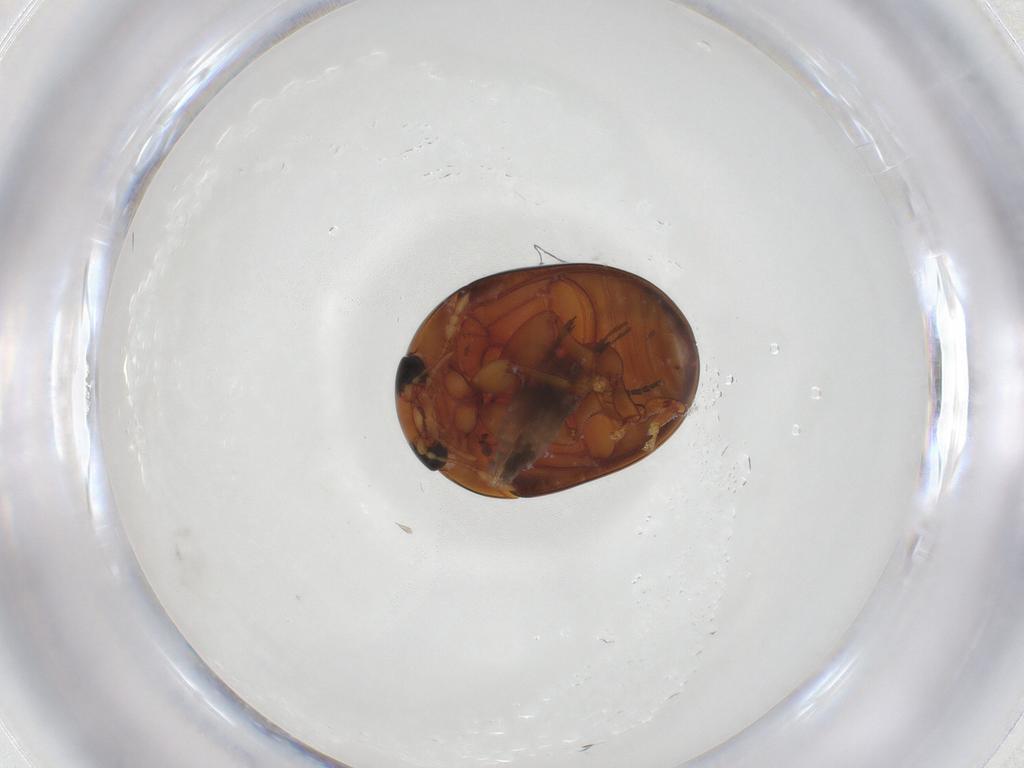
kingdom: Animalia
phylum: Arthropoda
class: Insecta
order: Coleoptera
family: Phalacridae
